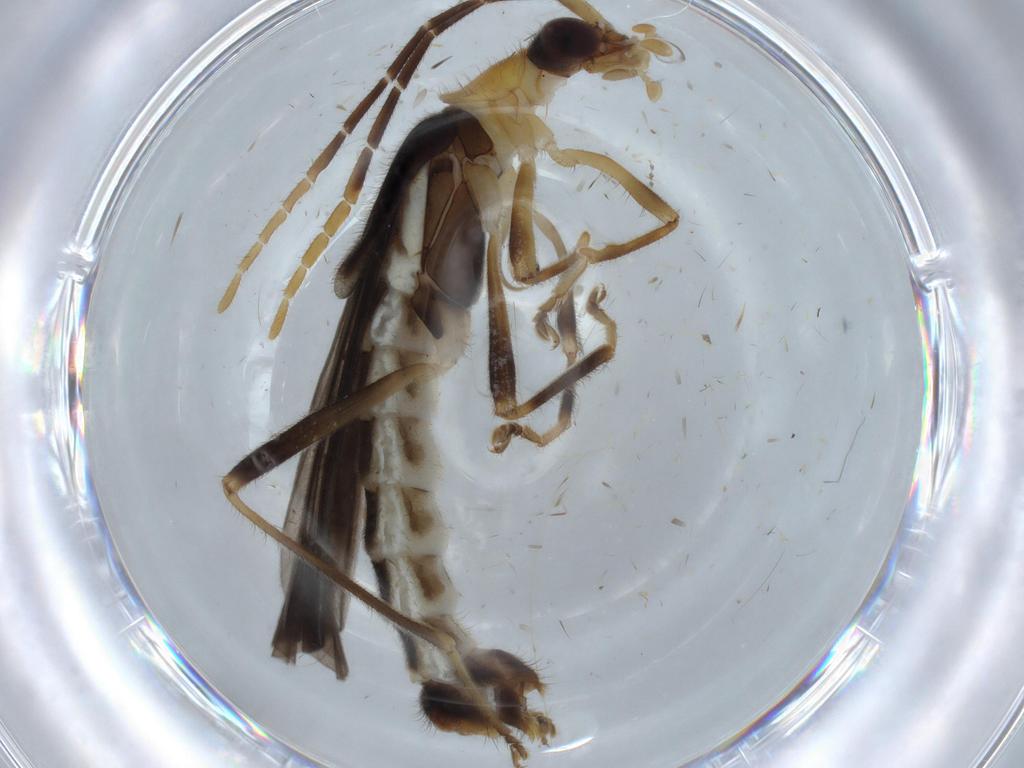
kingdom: Animalia
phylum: Arthropoda
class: Insecta
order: Coleoptera
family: Cantharidae
